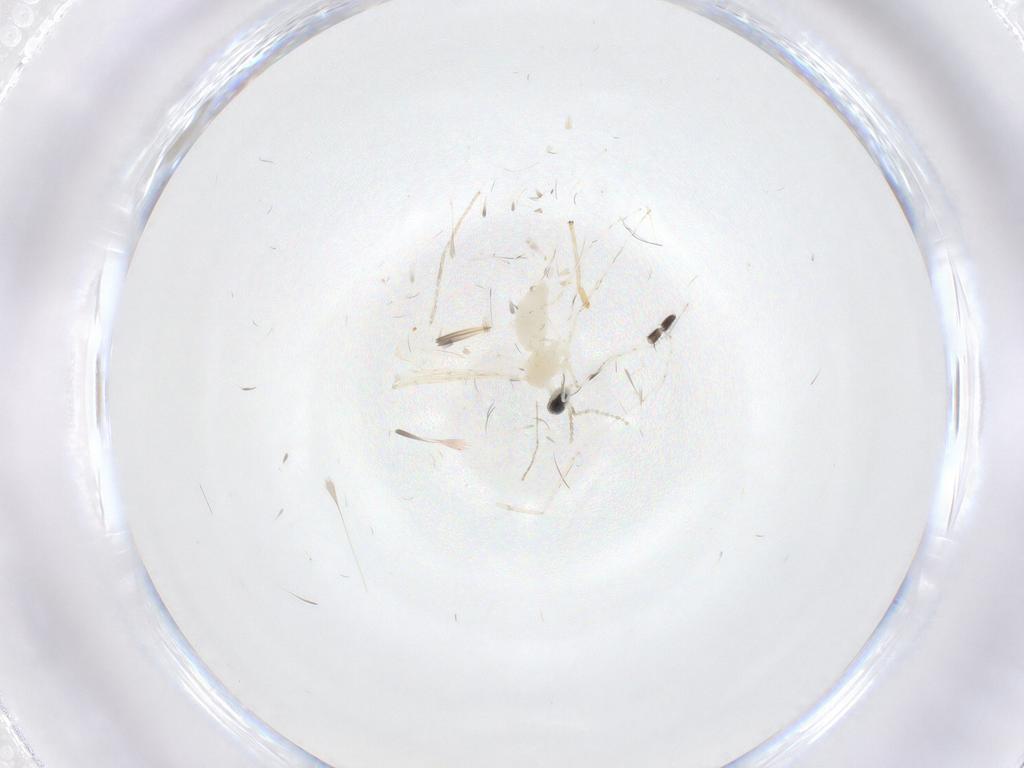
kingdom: Animalia
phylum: Arthropoda
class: Insecta
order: Diptera
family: Limoniidae
